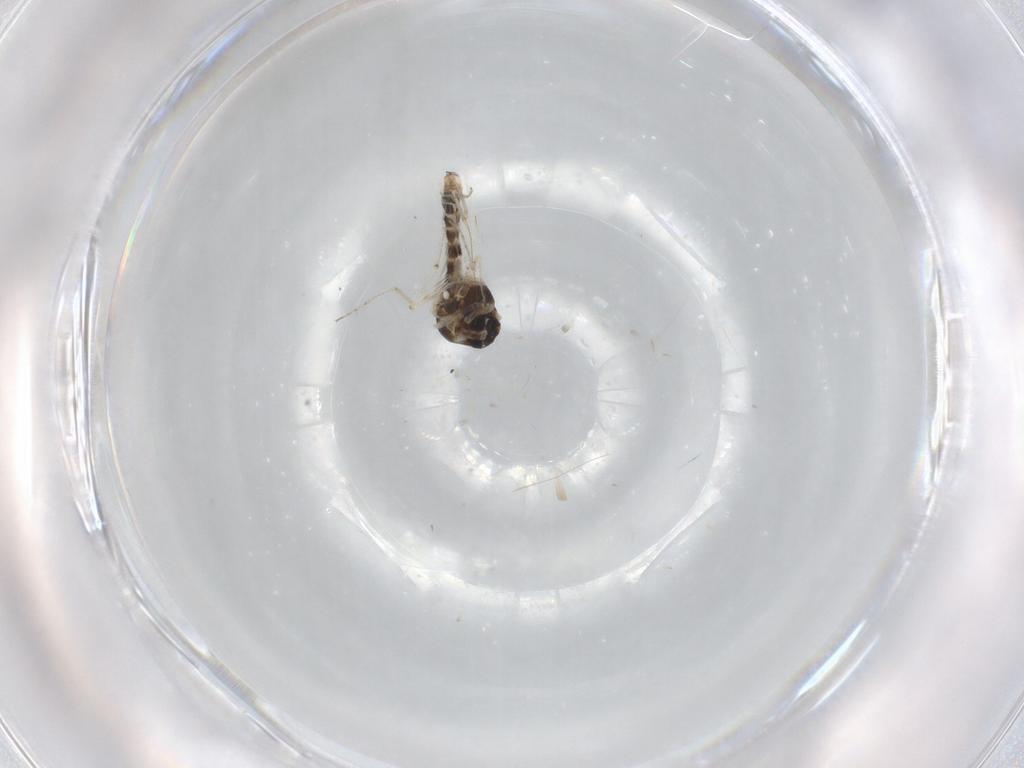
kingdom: Animalia
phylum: Arthropoda
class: Insecta
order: Diptera
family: Ceratopogonidae
